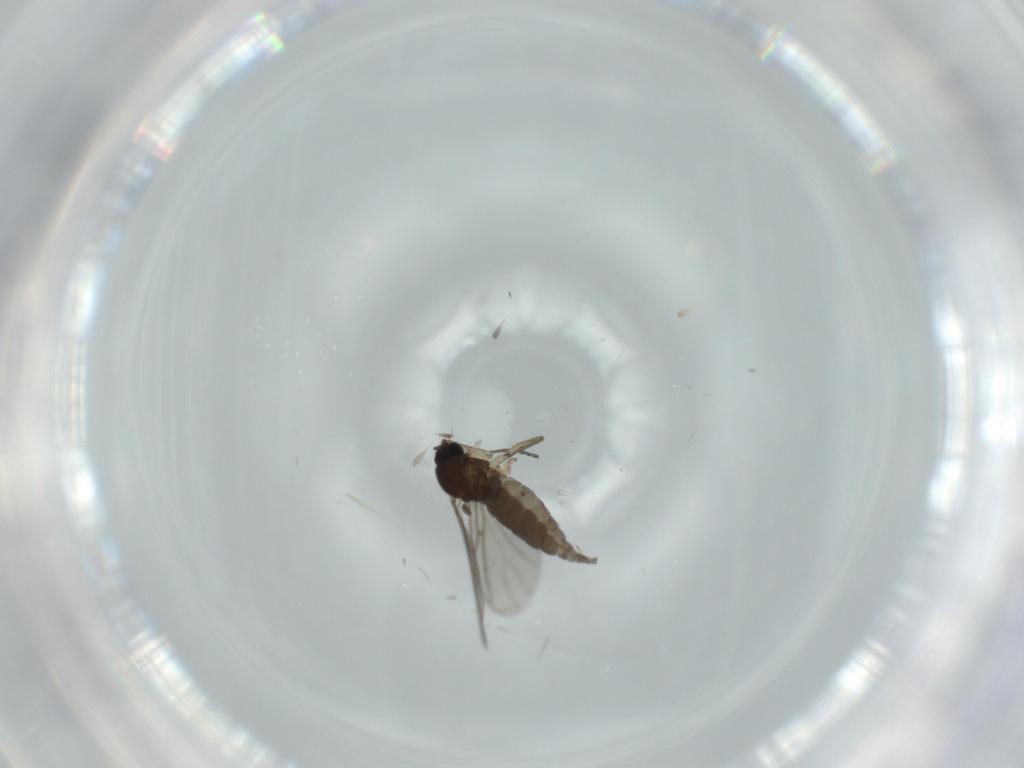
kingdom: Animalia
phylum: Arthropoda
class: Insecta
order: Diptera
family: Sciaridae
